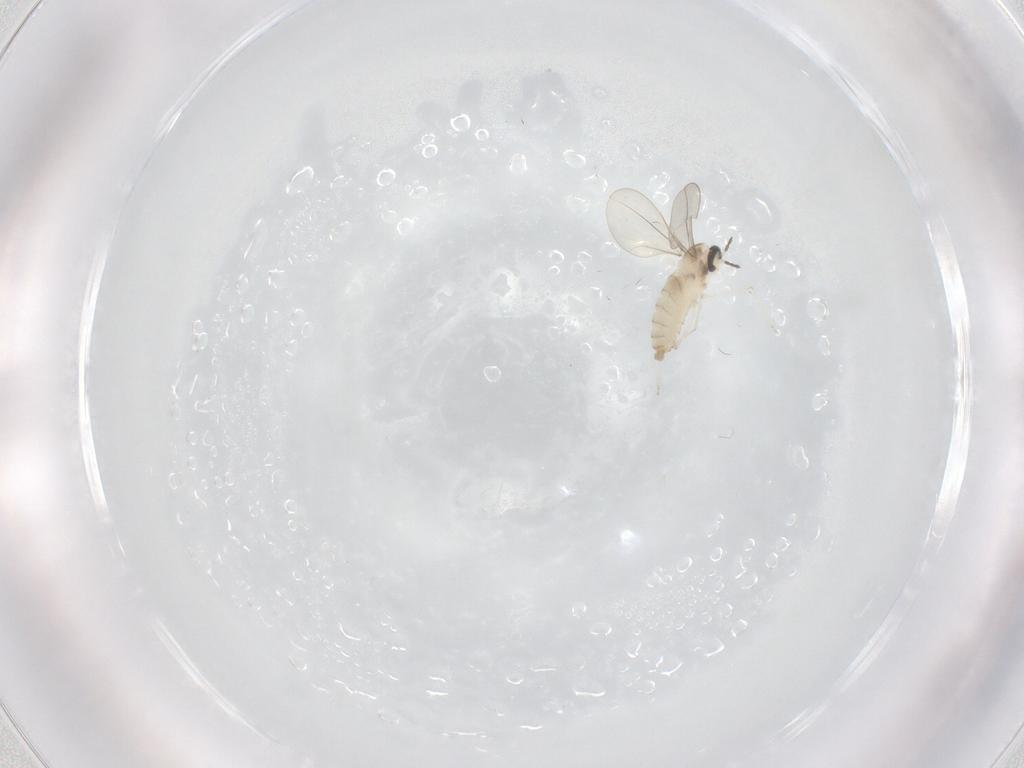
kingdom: Animalia
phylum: Arthropoda
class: Insecta
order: Diptera
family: Cecidomyiidae
